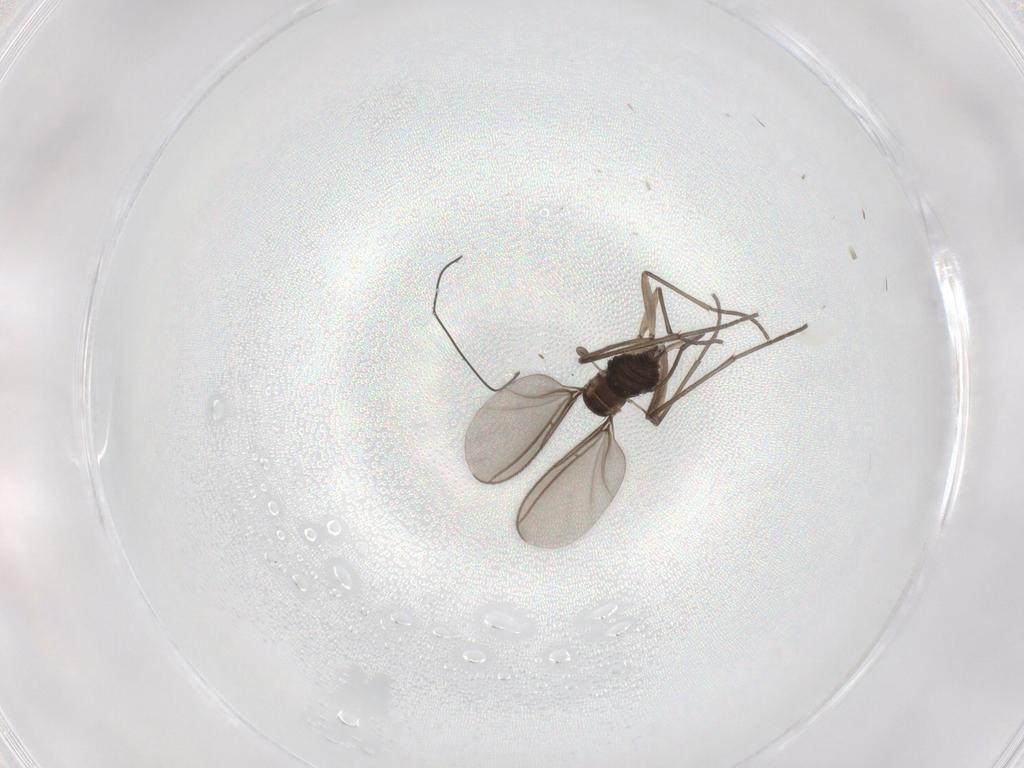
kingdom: Animalia
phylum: Arthropoda
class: Insecta
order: Diptera
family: Sciaridae
